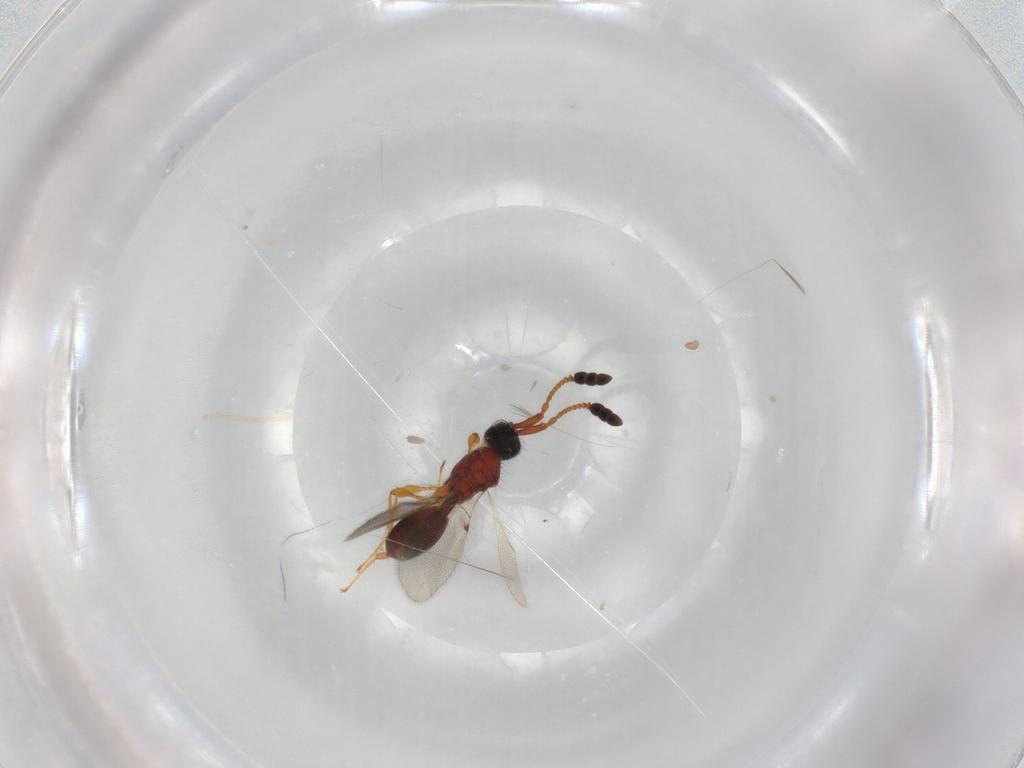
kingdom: Animalia
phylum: Arthropoda
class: Insecta
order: Hymenoptera
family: Diapriidae
